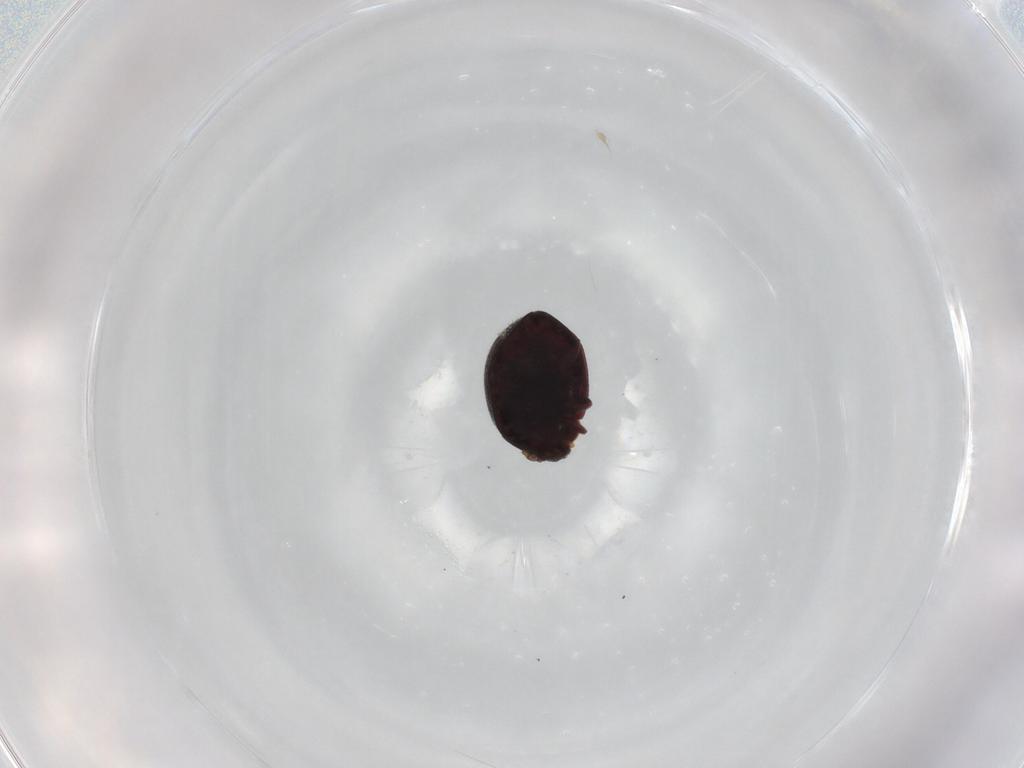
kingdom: Animalia
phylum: Arthropoda
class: Insecta
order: Coleoptera
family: Coccinellidae
